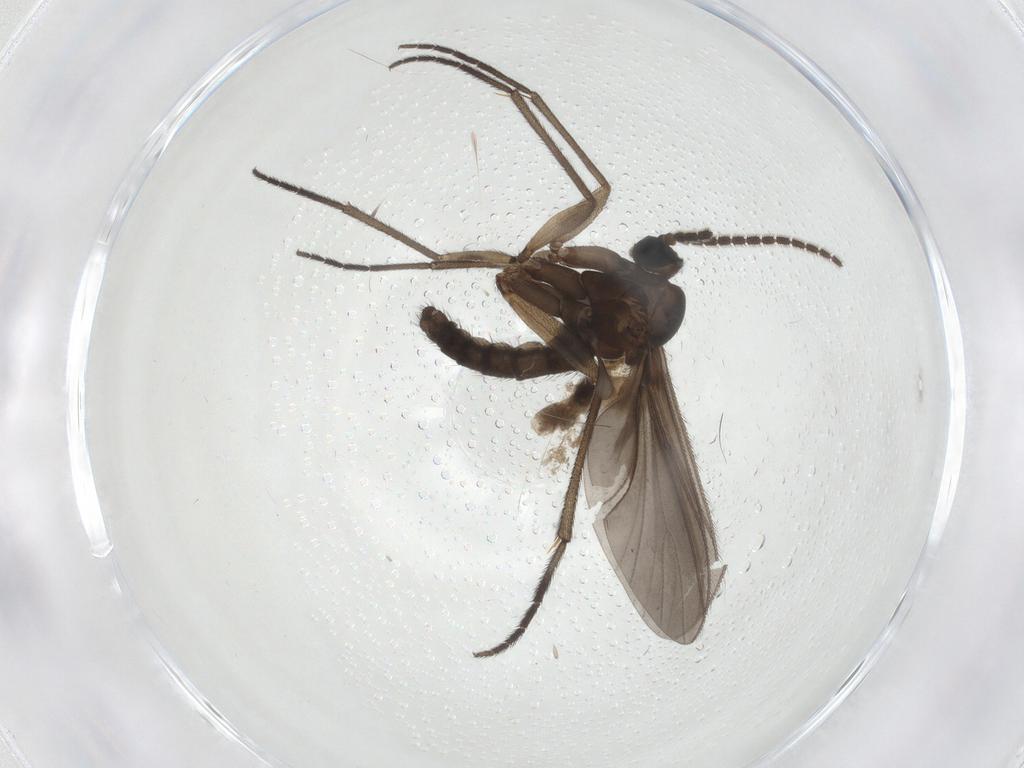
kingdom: Animalia
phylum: Arthropoda
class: Insecta
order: Diptera
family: Sciaridae
